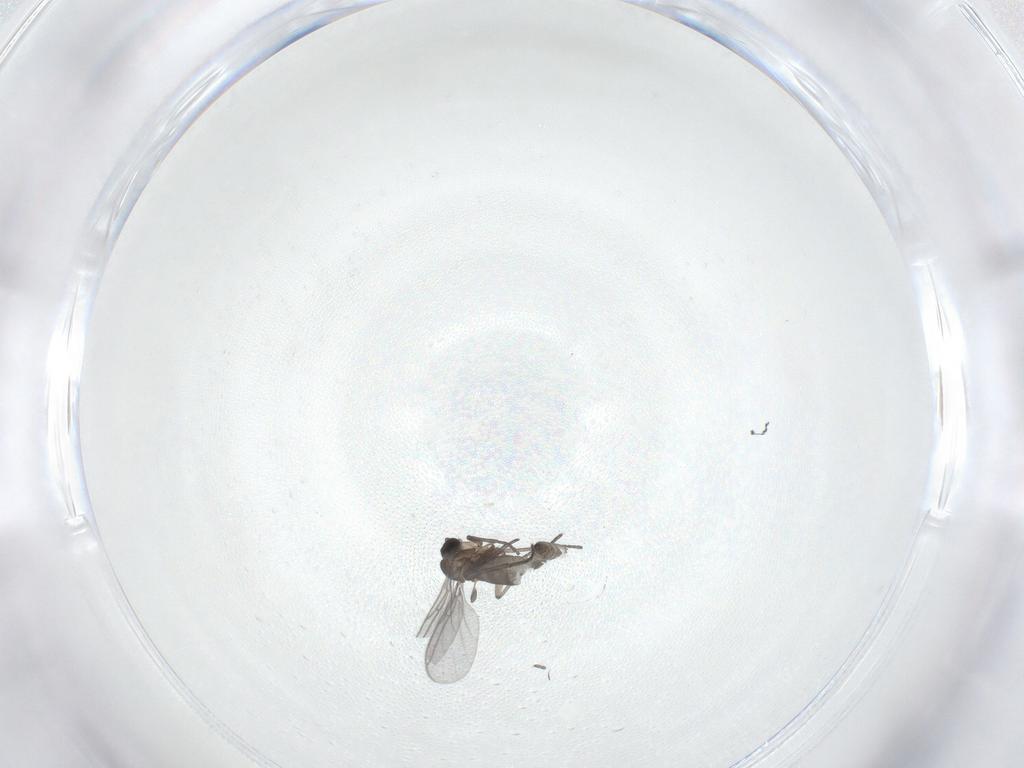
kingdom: Animalia
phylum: Arthropoda
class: Insecta
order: Diptera
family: Sciaridae
